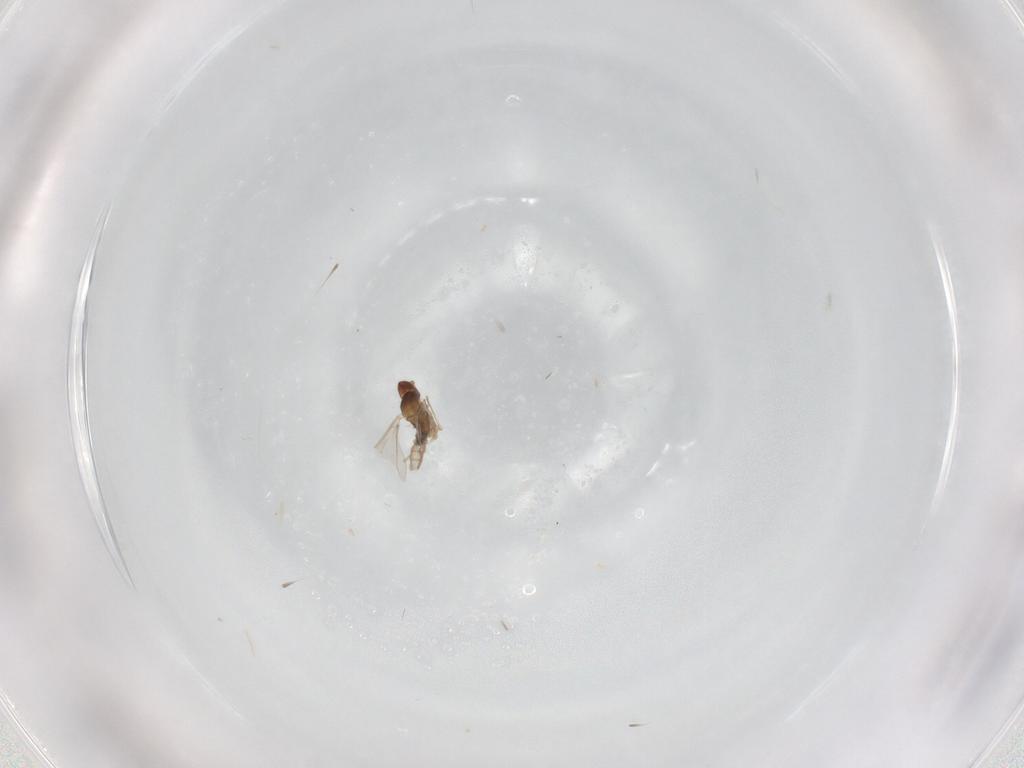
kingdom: Animalia
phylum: Arthropoda
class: Insecta
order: Diptera
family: Cecidomyiidae
